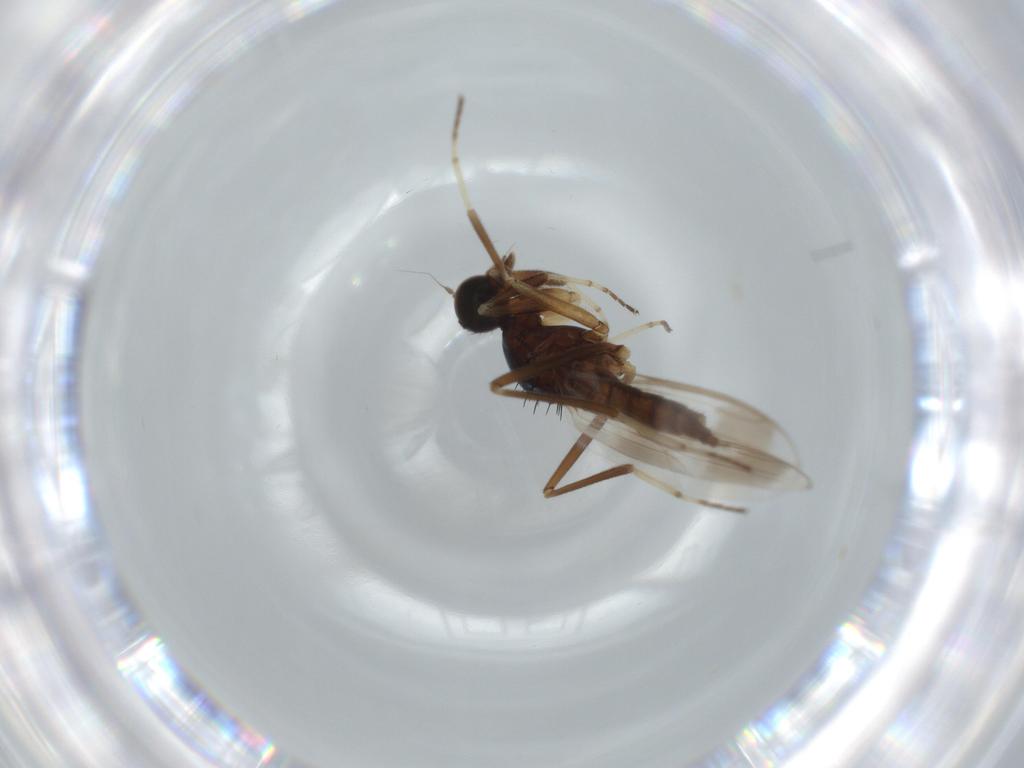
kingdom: Animalia
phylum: Arthropoda
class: Insecta
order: Diptera
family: Hybotidae
